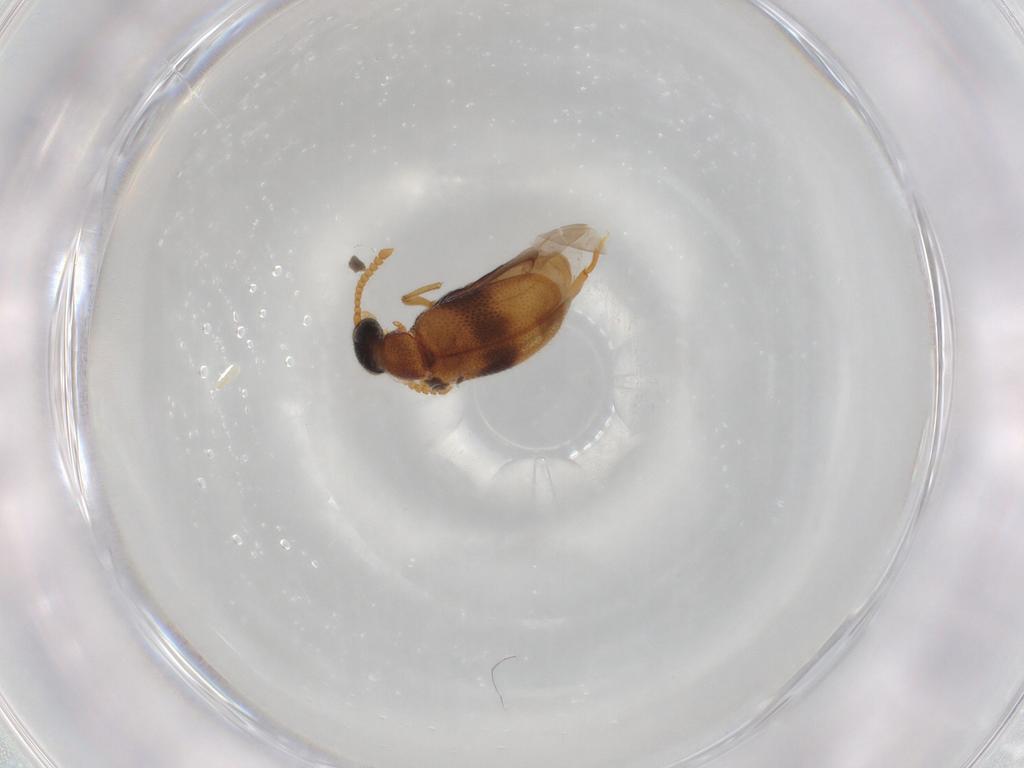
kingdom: Animalia
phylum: Arthropoda
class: Insecta
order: Coleoptera
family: Aderidae
